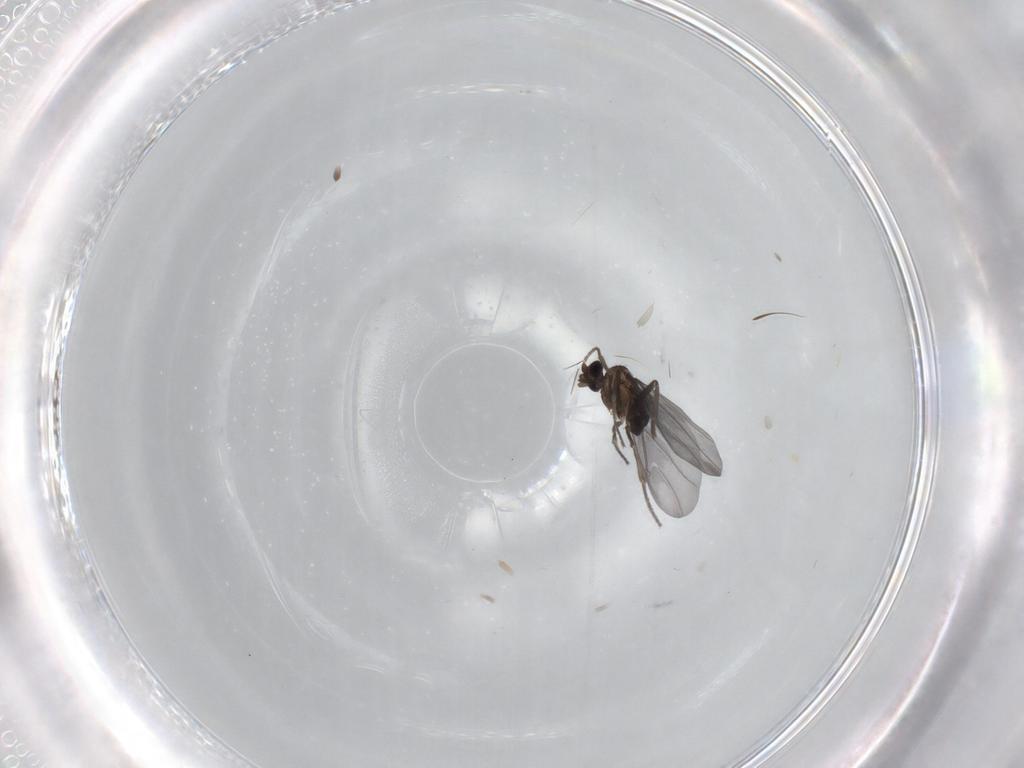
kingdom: Animalia
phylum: Arthropoda
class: Insecta
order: Diptera
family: Phoridae
